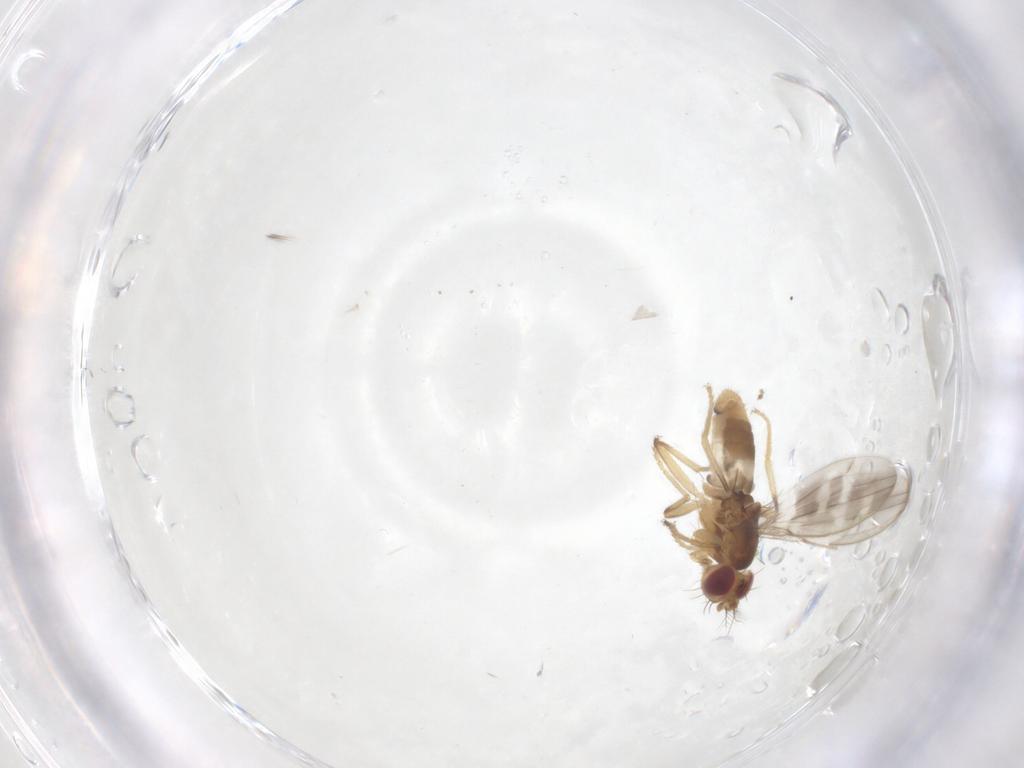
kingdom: Animalia
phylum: Arthropoda
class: Insecta
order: Diptera
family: Periscelididae
